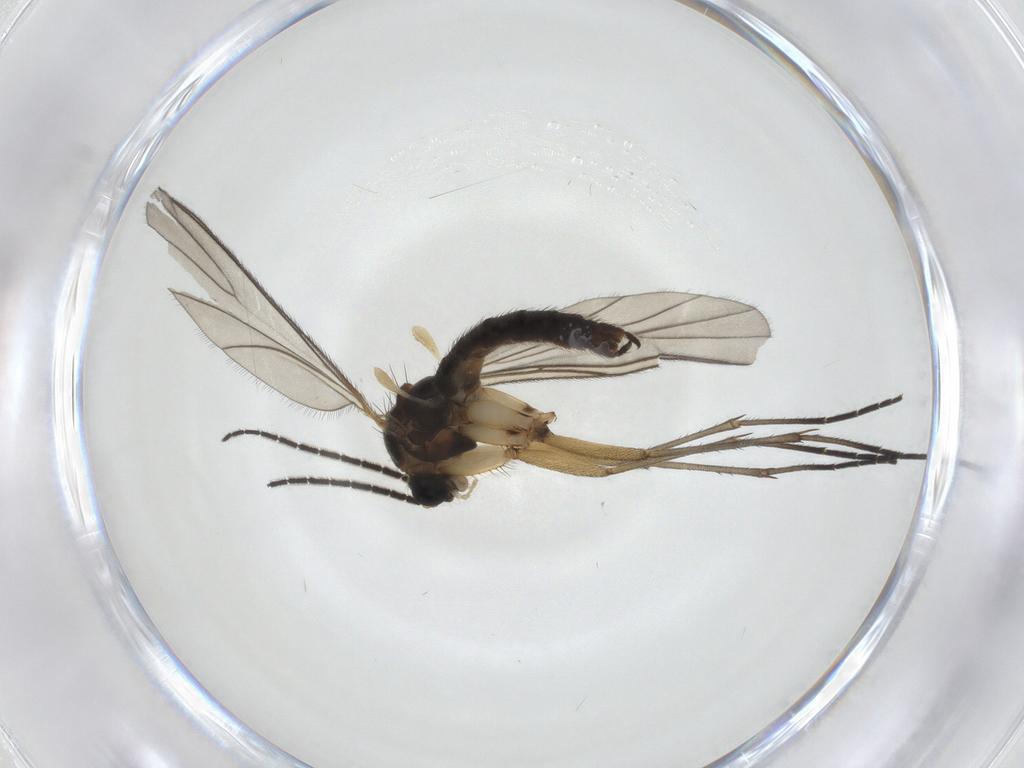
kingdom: Animalia
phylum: Arthropoda
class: Insecta
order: Diptera
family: Sciaridae
